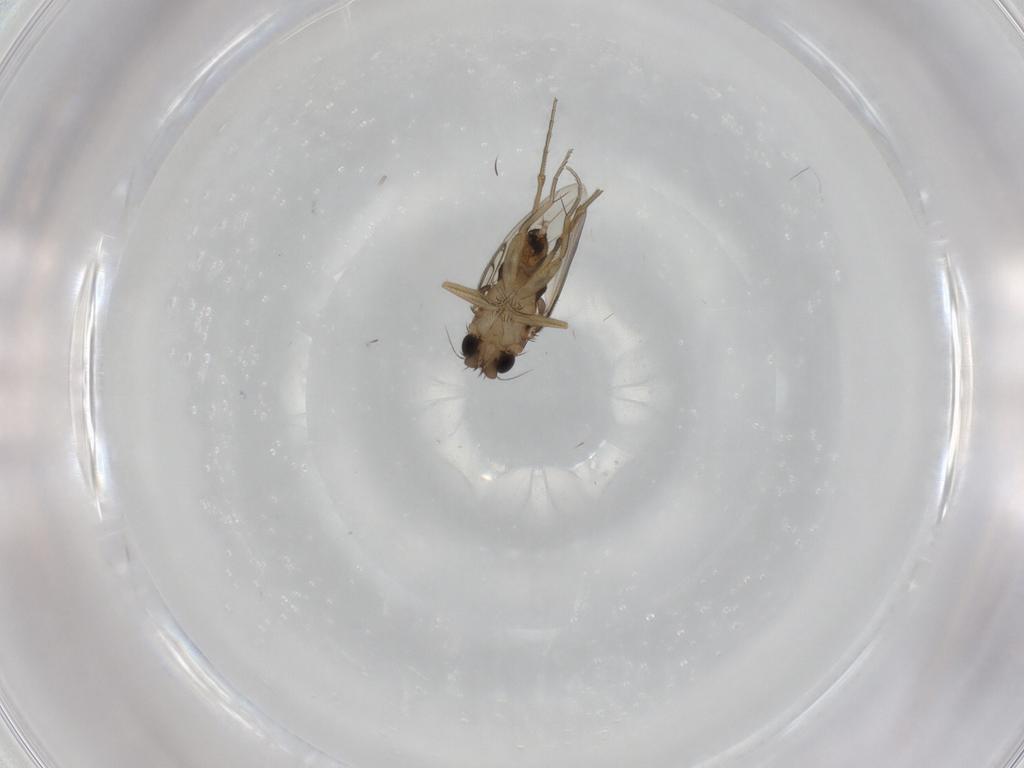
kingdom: Animalia
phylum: Arthropoda
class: Insecta
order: Diptera
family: Phoridae
